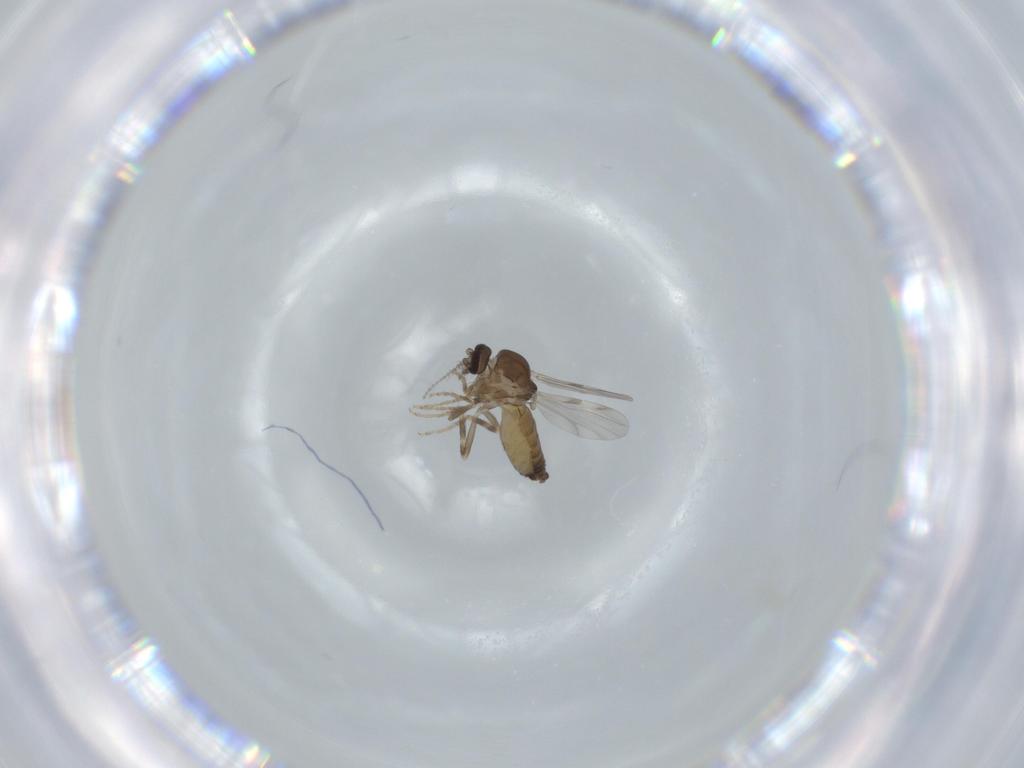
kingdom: Animalia
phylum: Arthropoda
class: Insecta
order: Diptera
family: Ceratopogonidae
